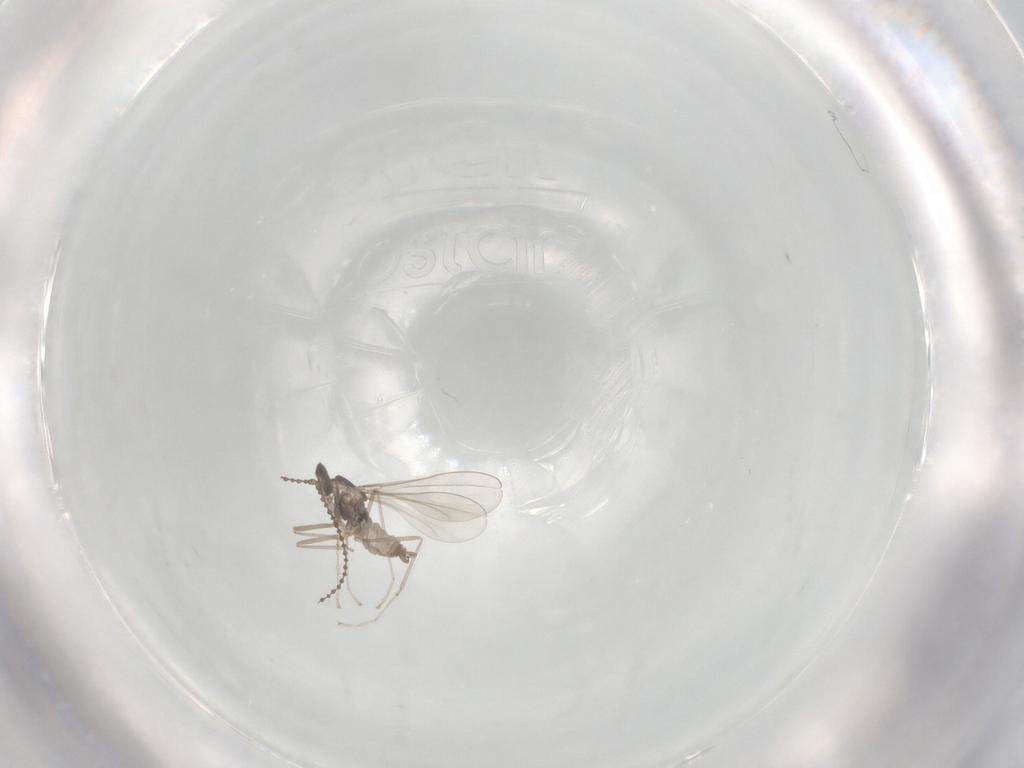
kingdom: Animalia
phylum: Arthropoda
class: Insecta
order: Diptera
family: Cecidomyiidae
